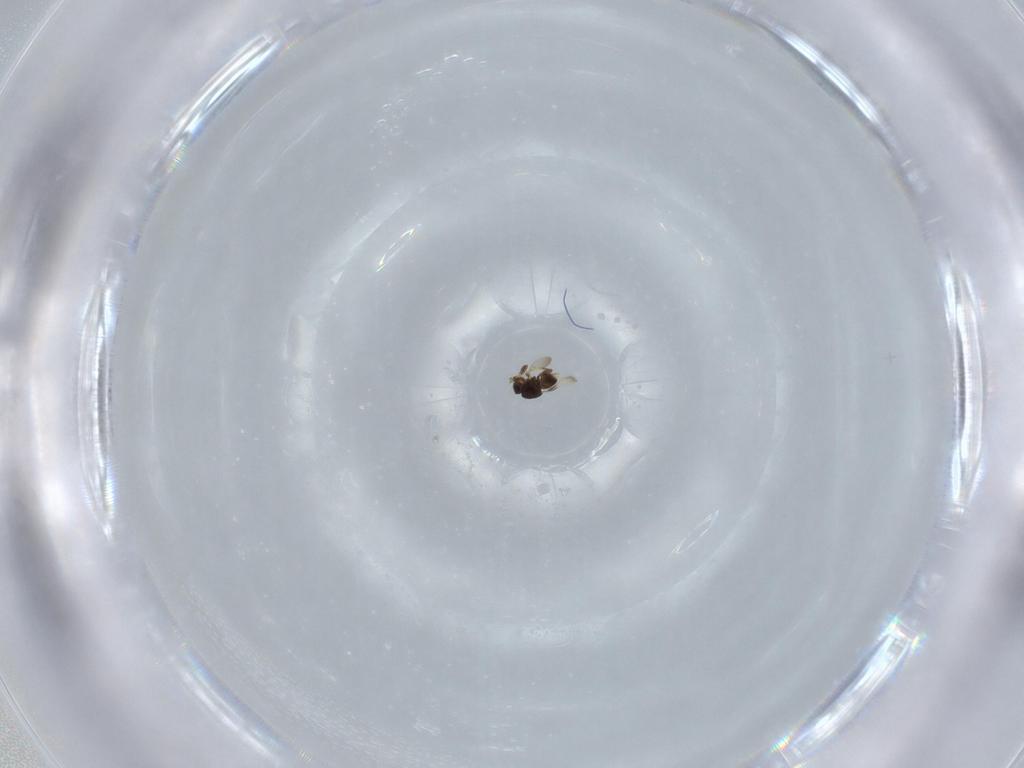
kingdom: Animalia
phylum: Arthropoda
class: Insecta
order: Hymenoptera
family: Ceraphronidae
